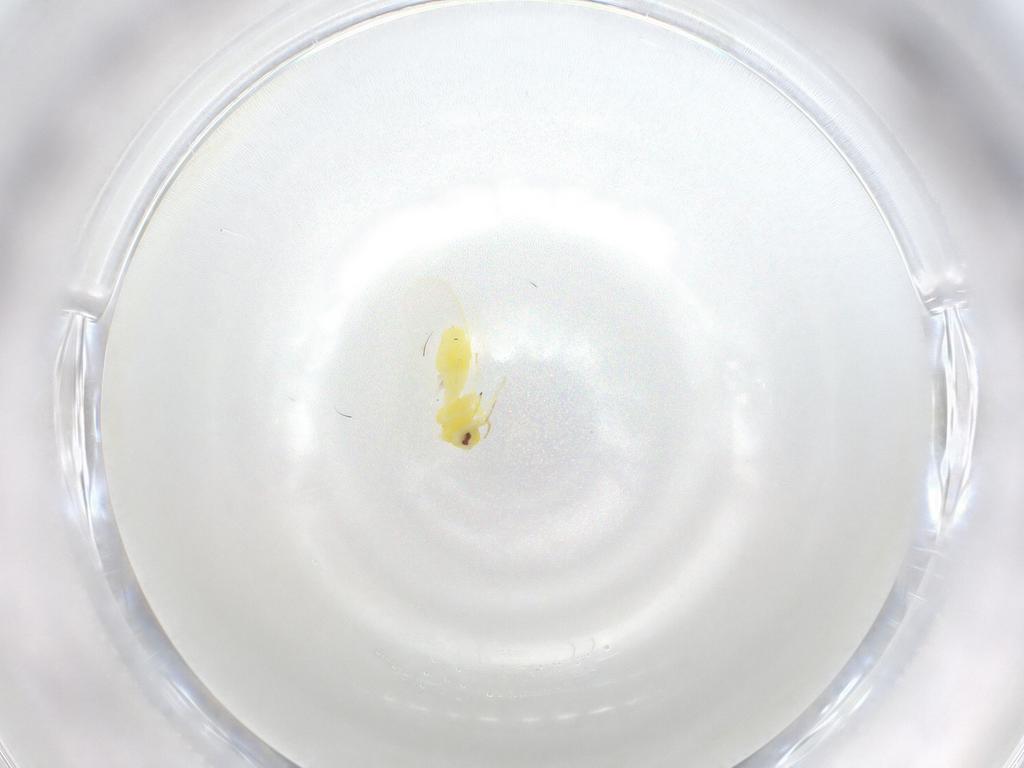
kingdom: Animalia
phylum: Arthropoda
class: Insecta
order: Hemiptera
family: Aleyrodidae
